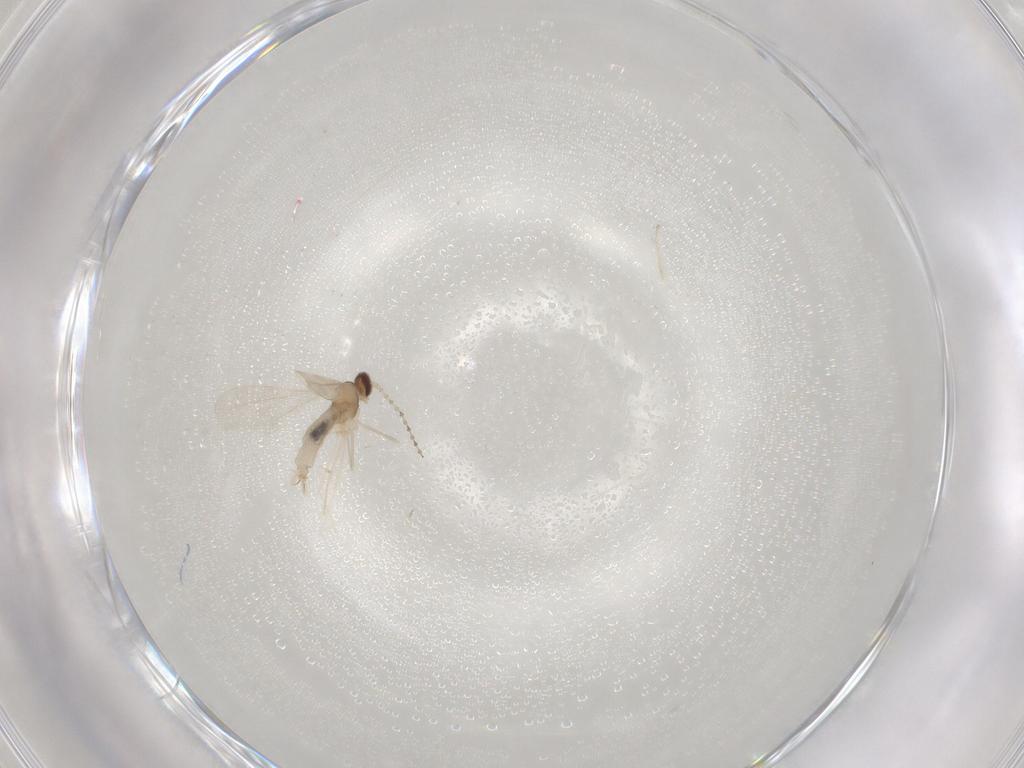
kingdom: Animalia
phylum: Arthropoda
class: Insecta
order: Diptera
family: Cecidomyiidae
